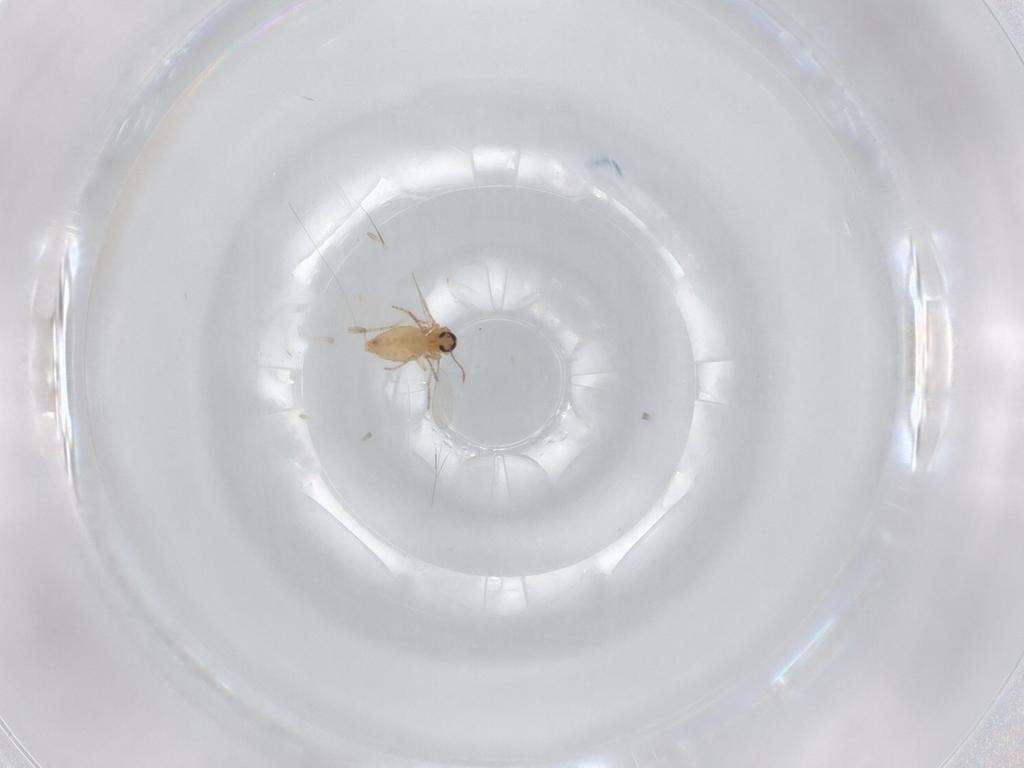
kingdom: Animalia
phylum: Arthropoda
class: Insecta
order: Diptera
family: Ceratopogonidae
